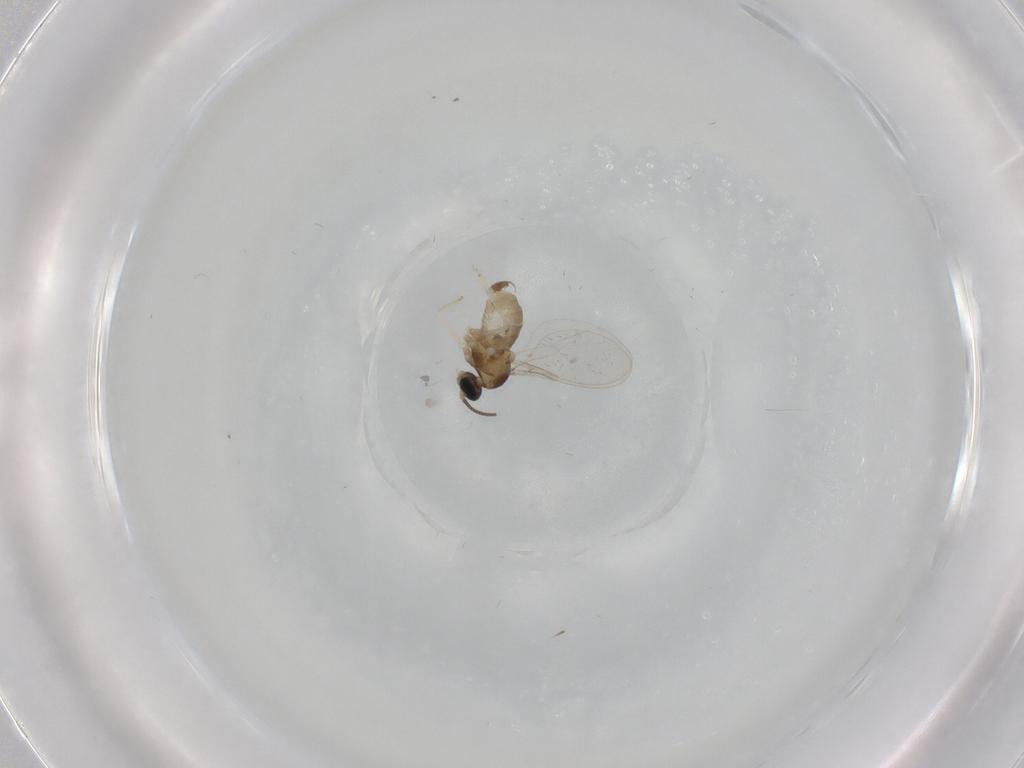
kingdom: Animalia
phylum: Arthropoda
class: Insecta
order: Diptera
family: Cecidomyiidae
